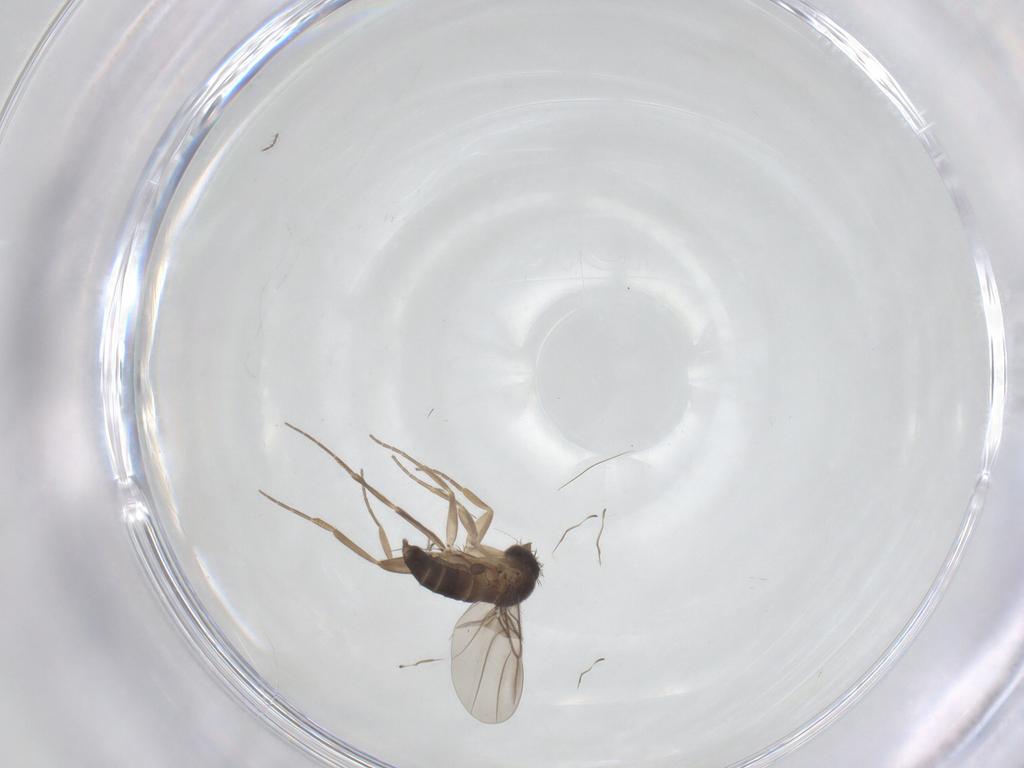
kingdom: Animalia
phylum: Arthropoda
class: Insecta
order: Diptera
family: Phoridae
